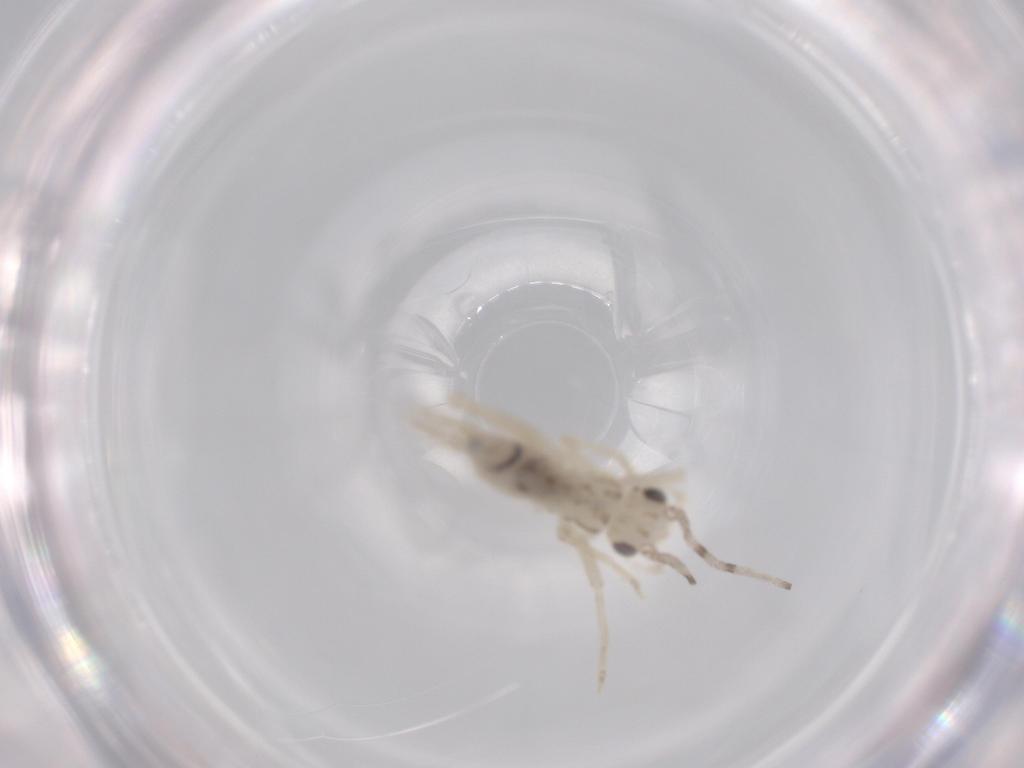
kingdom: Animalia
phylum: Arthropoda
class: Insecta
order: Orthoptera
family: Trigonidiidae
